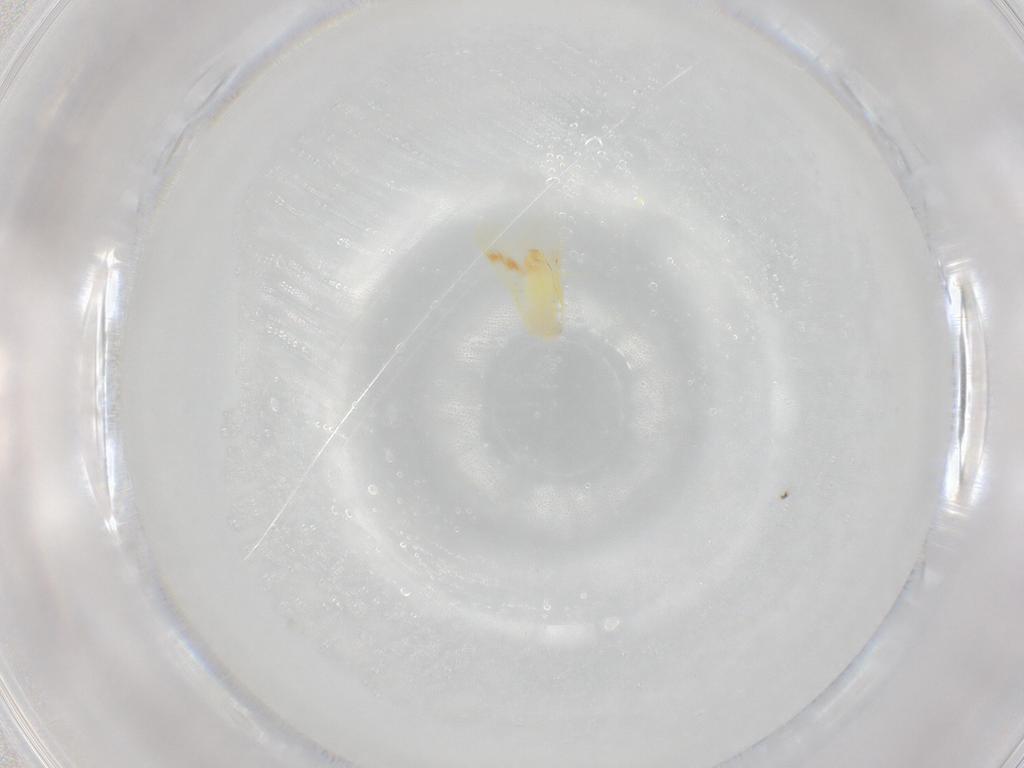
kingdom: Animalia
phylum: Arthropoda
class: Insecta
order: Hemiptera
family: Aleyrodidae
